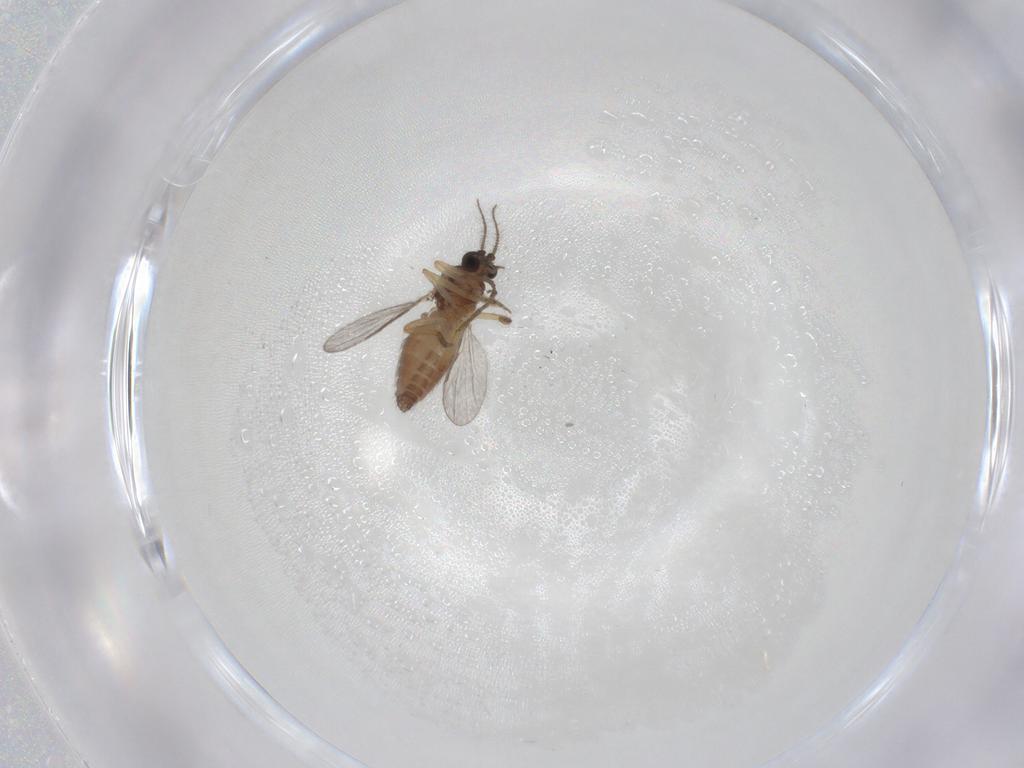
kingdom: Animalia
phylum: Arthropoda
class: Insecta
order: Diptera
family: Ceratopogonidae
